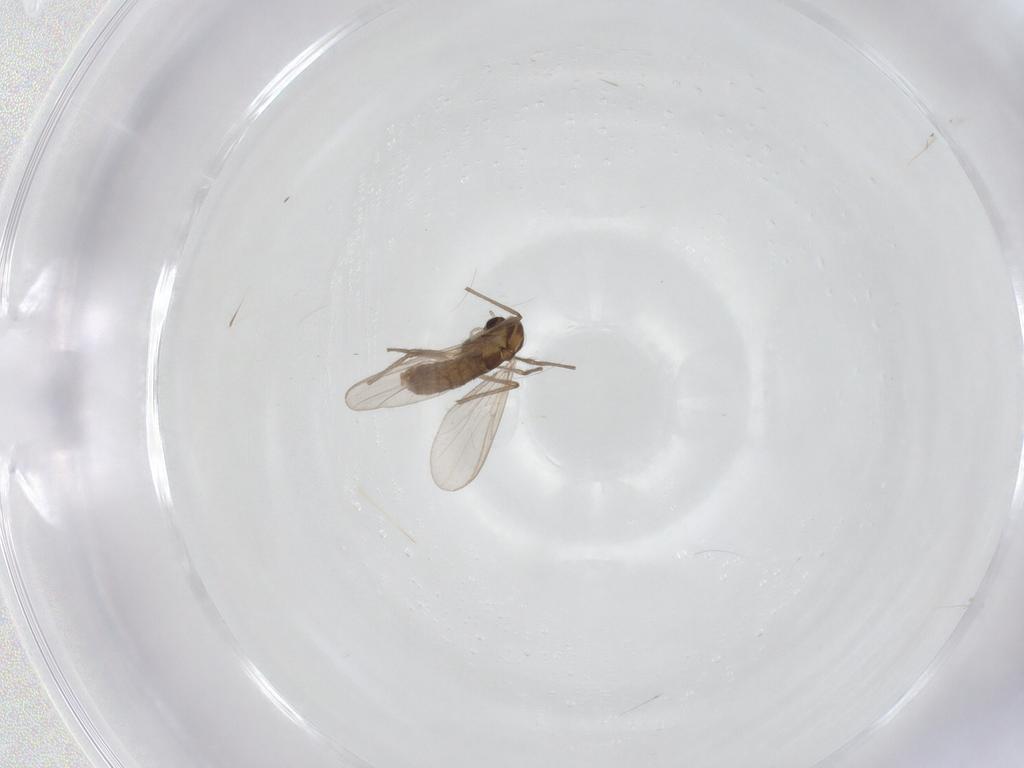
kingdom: Animalia
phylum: Arthropoda
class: Insecta
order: Diptera
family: Chironomidae
